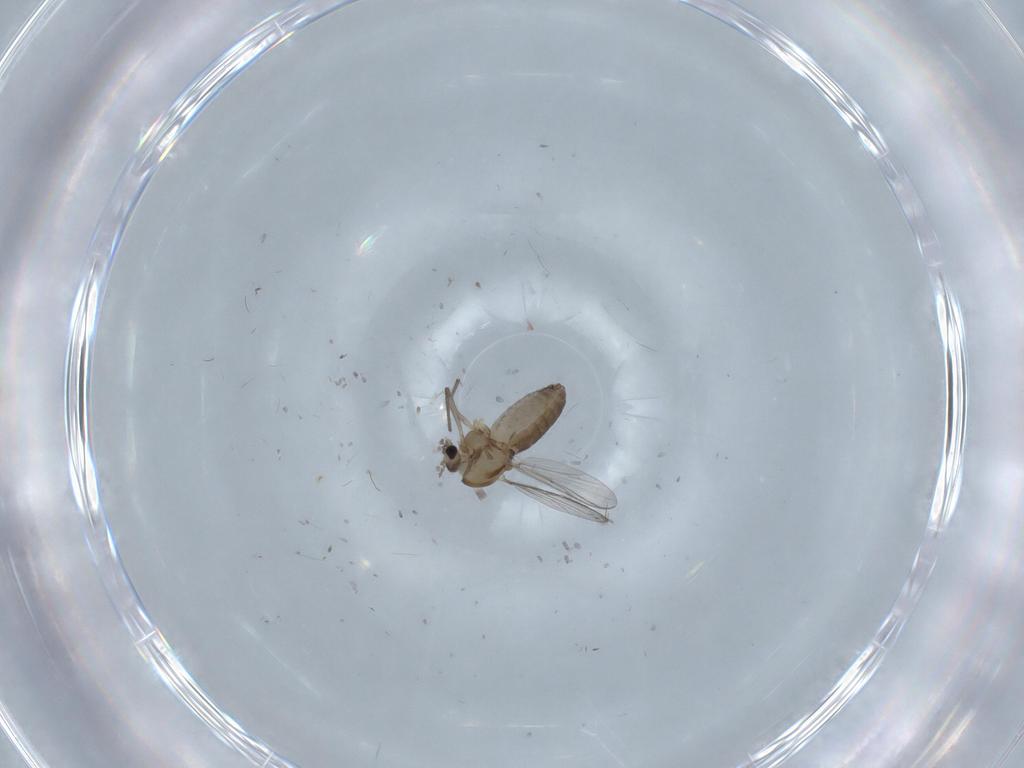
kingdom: Animalia
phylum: Arthropoda
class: Insecta
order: Diptera
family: Chironomidae
